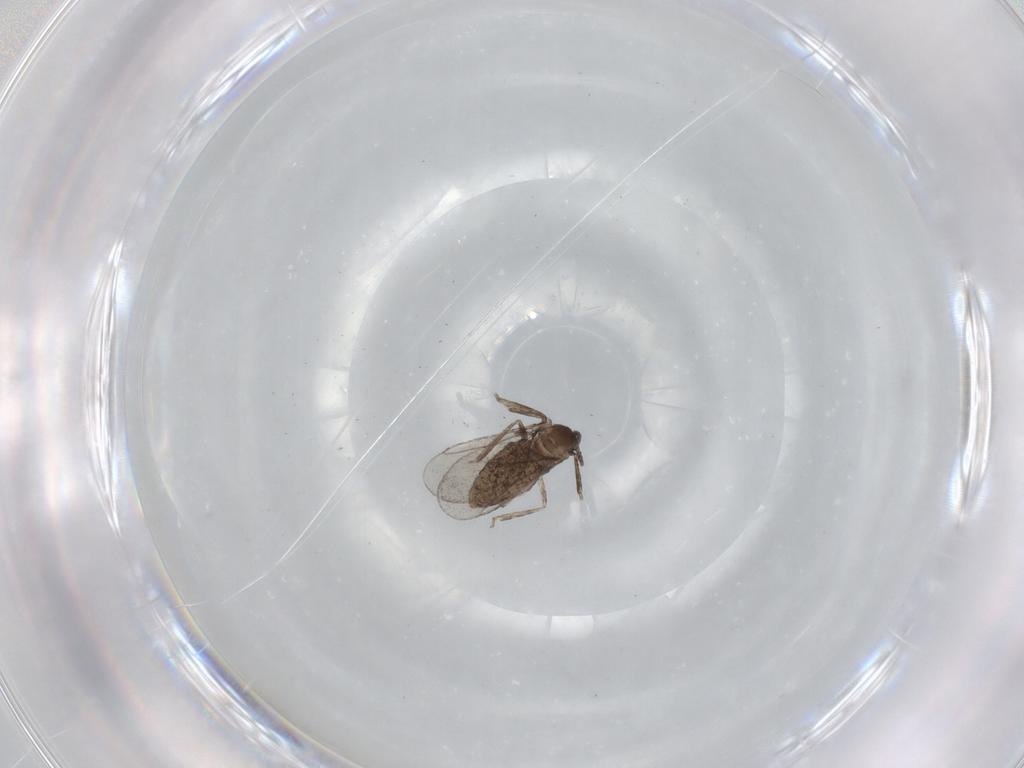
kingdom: Animalia
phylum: Arthropoda
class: Insecta
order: Diptera
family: Cecidomyiidae
